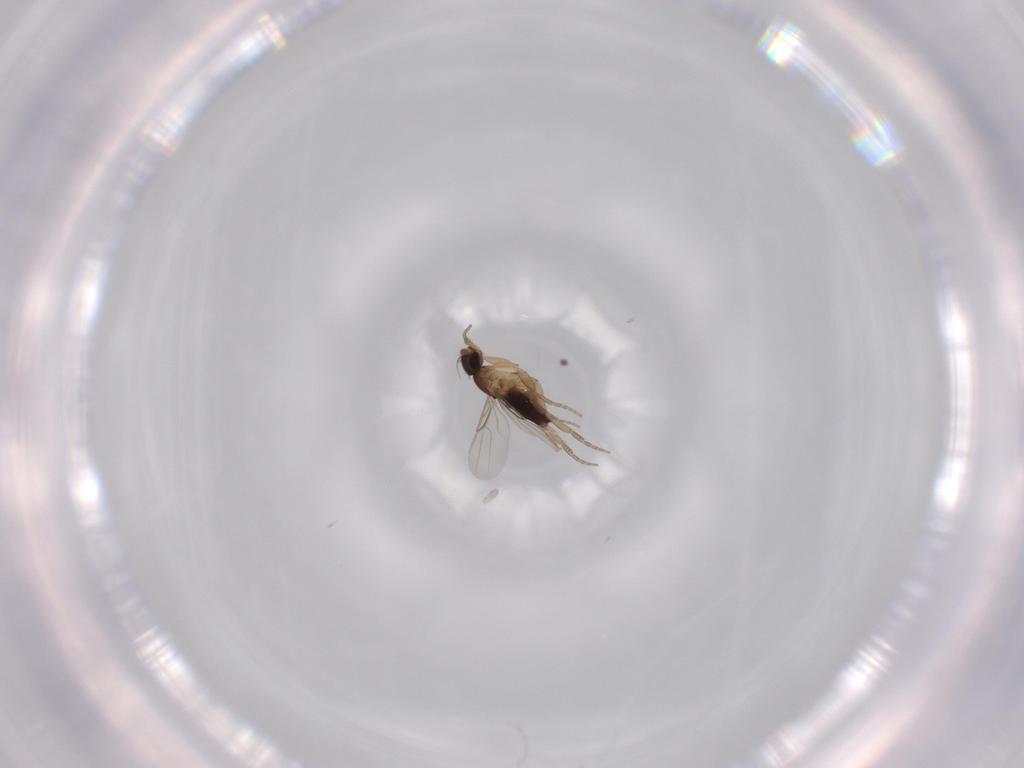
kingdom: Animalia
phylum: Arthropoda
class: Insecta
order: Diptera
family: Phoridae
